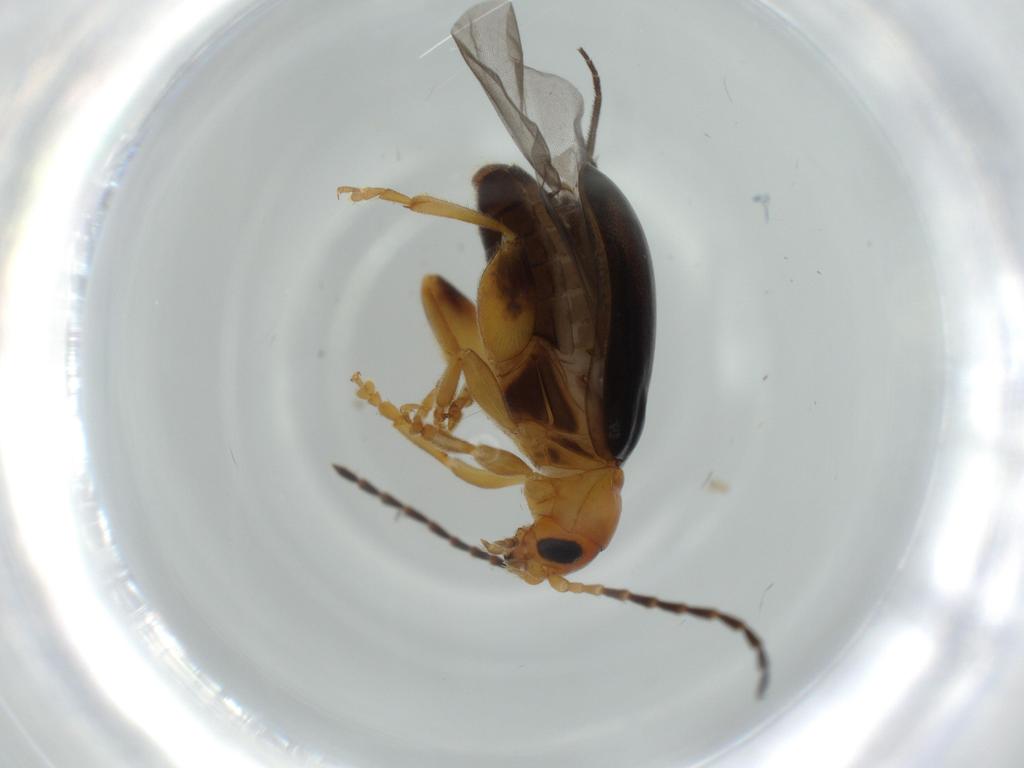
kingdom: Animalia
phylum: Arthropoda
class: Insecta
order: Coleoptera
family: Chrysomelidae
